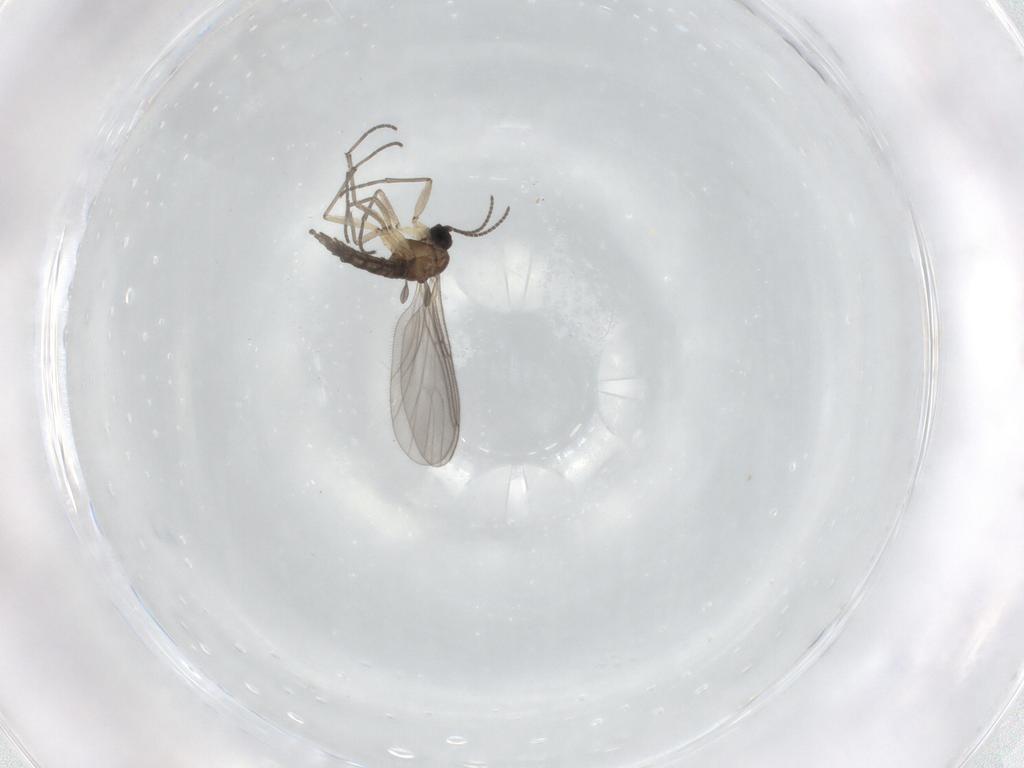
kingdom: Animalia
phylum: Arthropoda
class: Insecta
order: Diptera
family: Sciaridae
